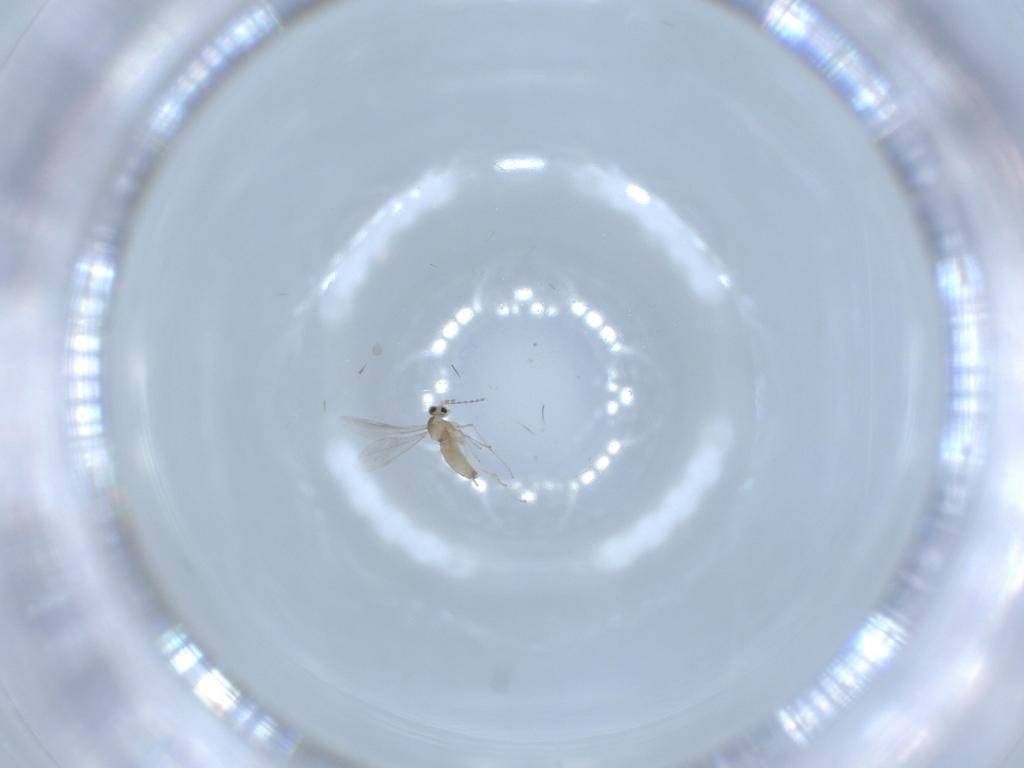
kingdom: Animalia
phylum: Arthropoda
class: Insecta
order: Diptera
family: Cecidomyiidae
